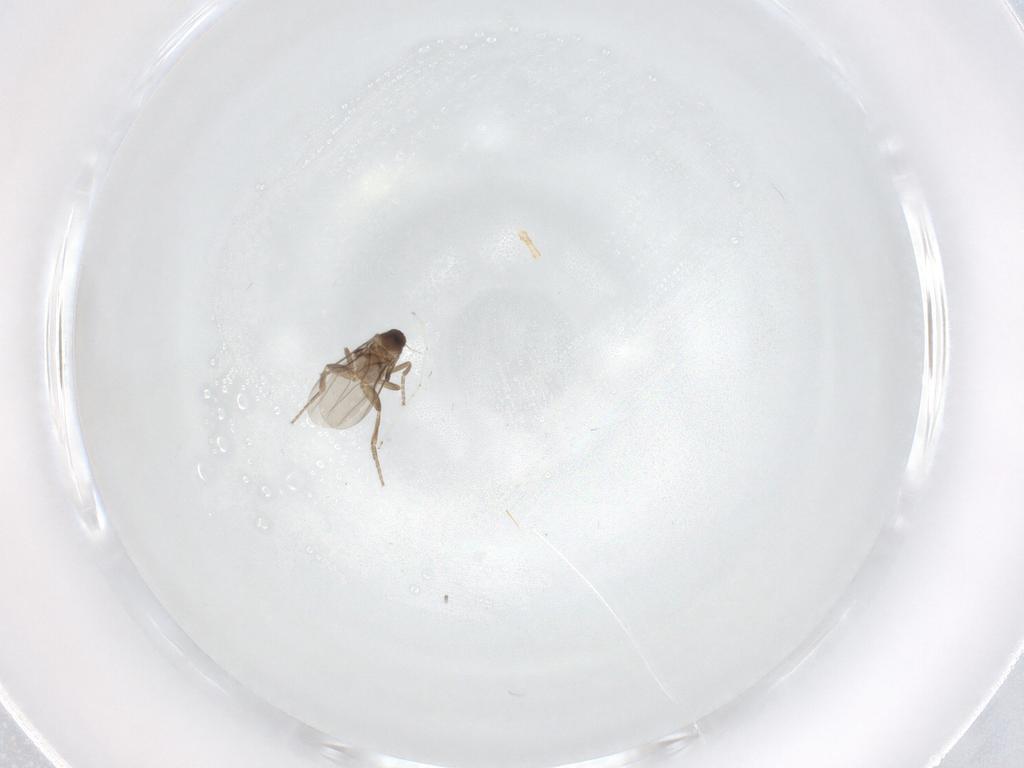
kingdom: Animalia
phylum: Arthropoda
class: Insecta
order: Diptera
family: Phoridae
